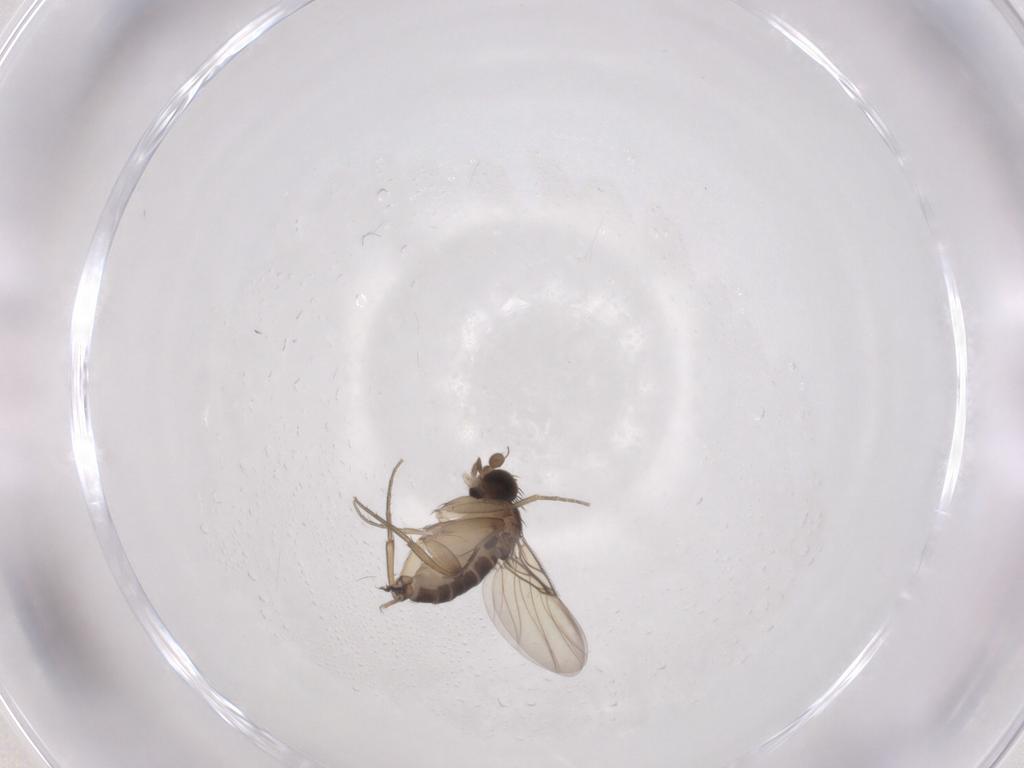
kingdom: Animalia
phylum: Arthropoda
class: Insecta
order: Diptera
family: Phoridae
